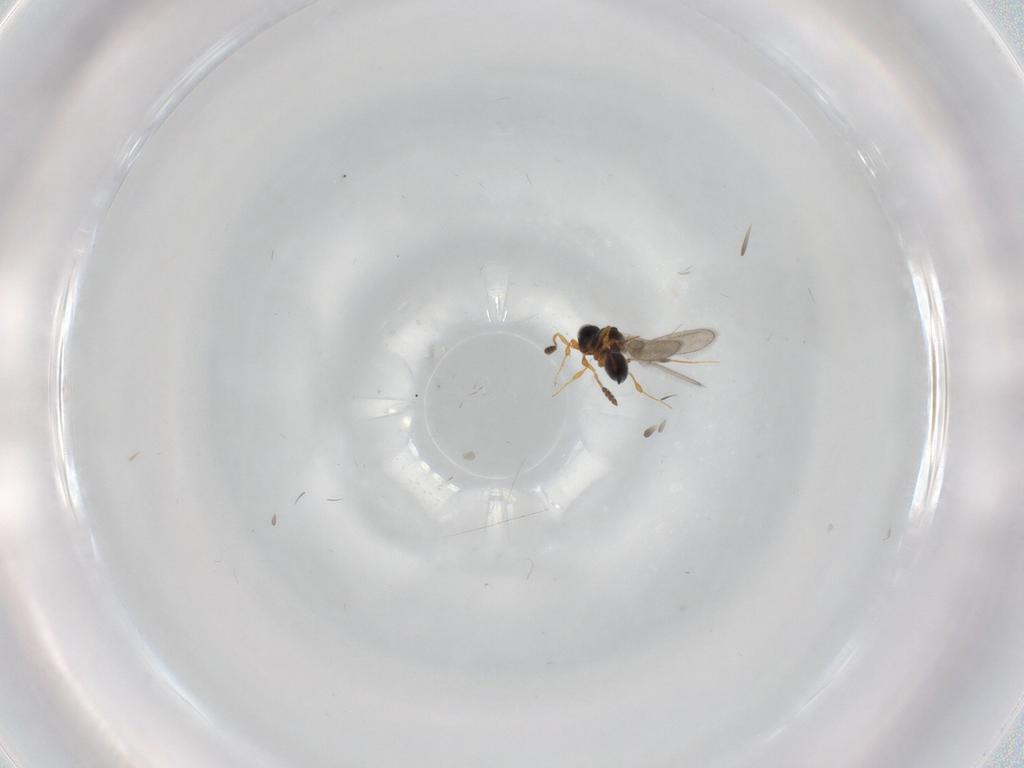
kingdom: Animalia
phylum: Arthropoda
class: Insecta
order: Hymenoptera
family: Platygastridae
